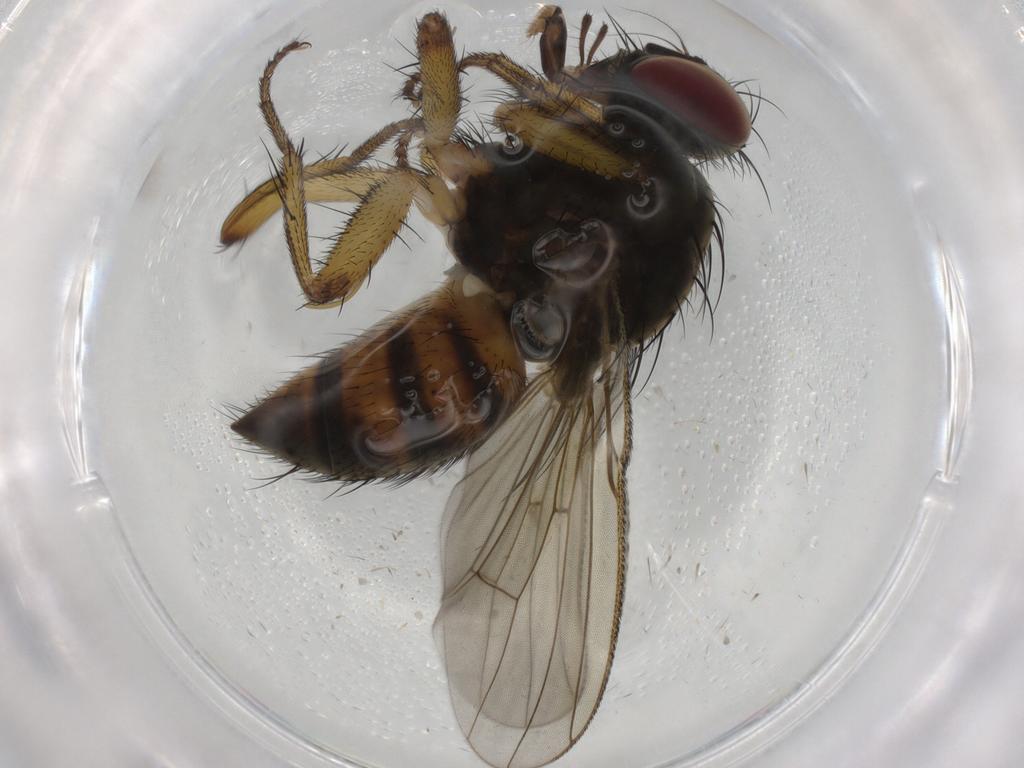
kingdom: Animalia
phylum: Arthropoda
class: Insecta
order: Diptera
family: Muscidae
